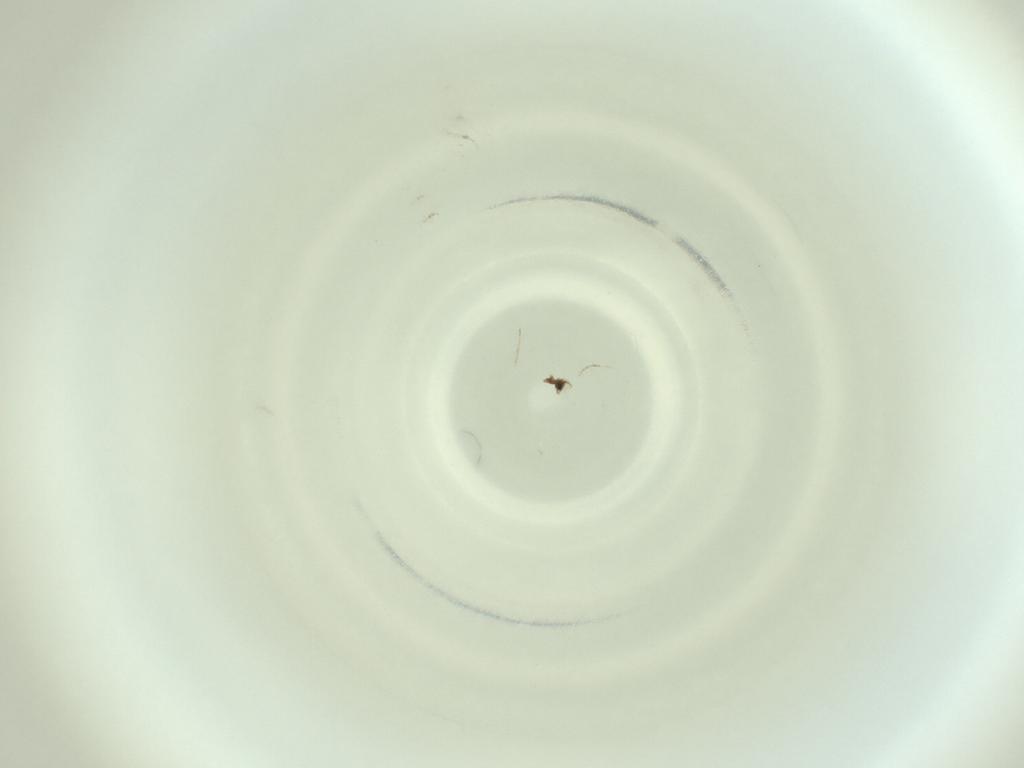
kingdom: Animalia
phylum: Arthropoda
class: Insecta
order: Diptera
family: Cecidomyiidae
